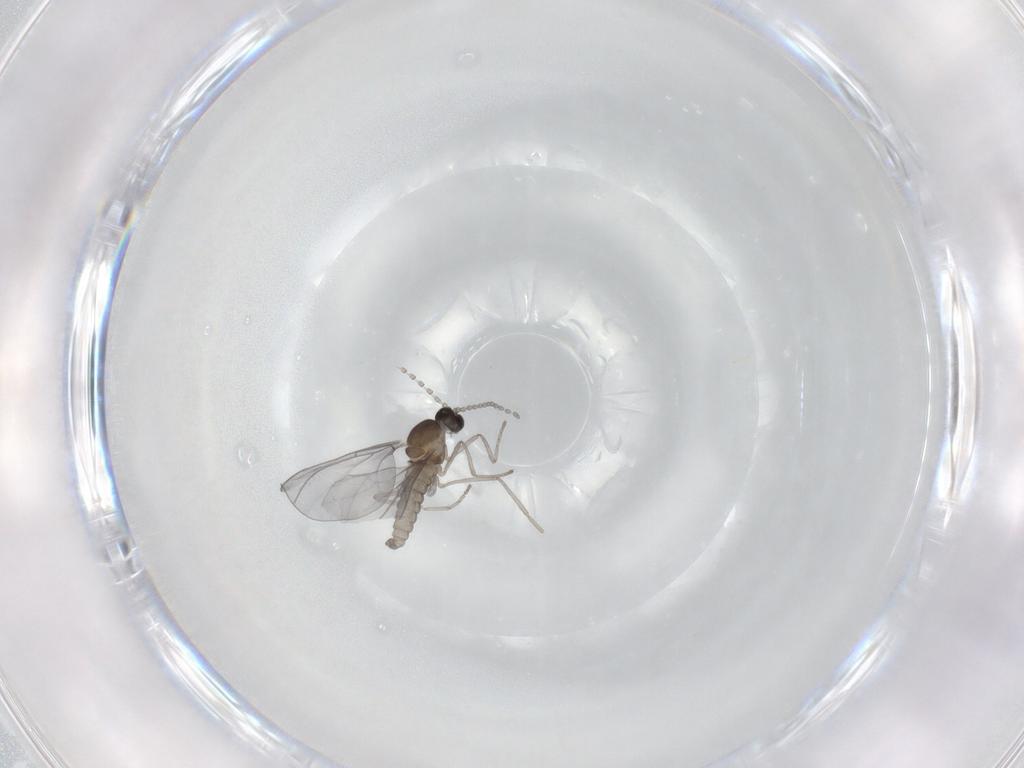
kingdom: Animalia
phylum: Arthropoda
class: Insecta
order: Diptera
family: Cecidomyiidae
